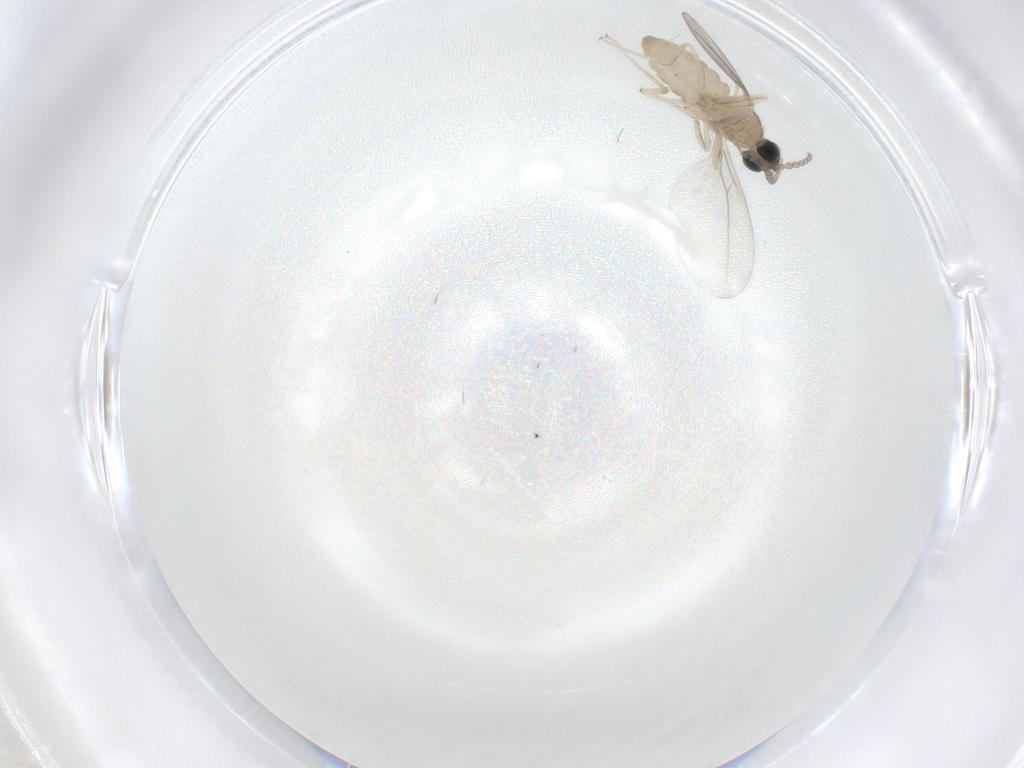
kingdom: Animalia
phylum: Arthropoda
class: Insecta
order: Diptera
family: Cecidomyiidae
